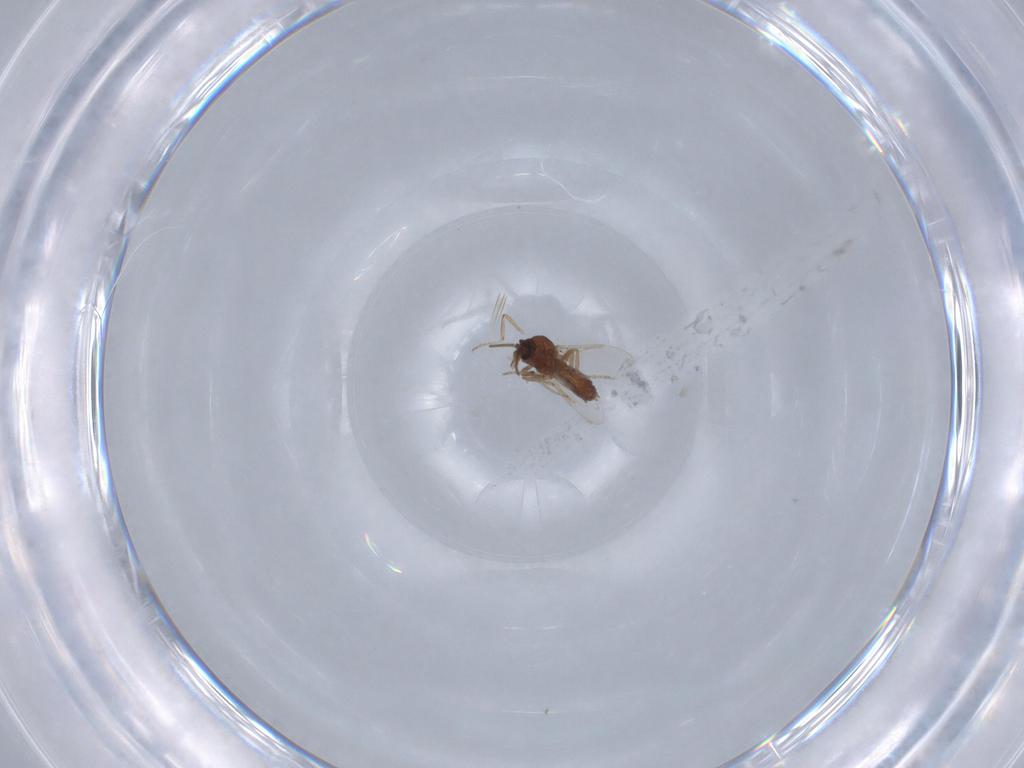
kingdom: Animalia
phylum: Arthropoda
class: Insecta
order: Diptera
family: Ceratopogonidae
